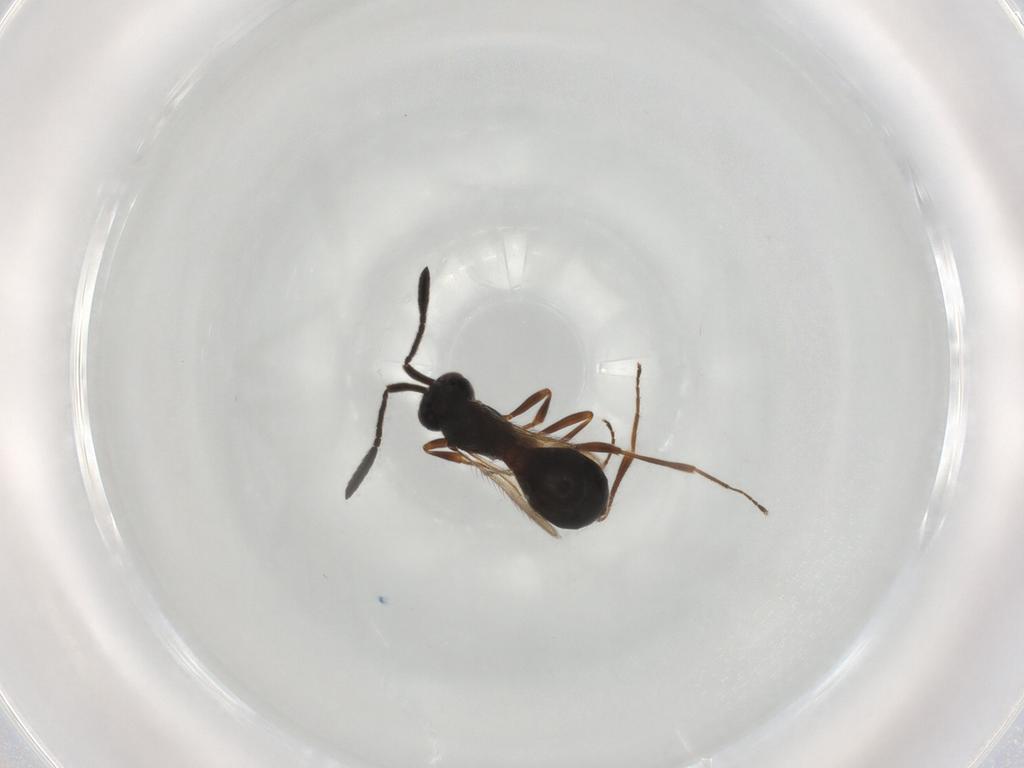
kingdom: Animalia
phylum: Arthropoda
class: Insecta
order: Hymenoptera
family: Scelionidae
